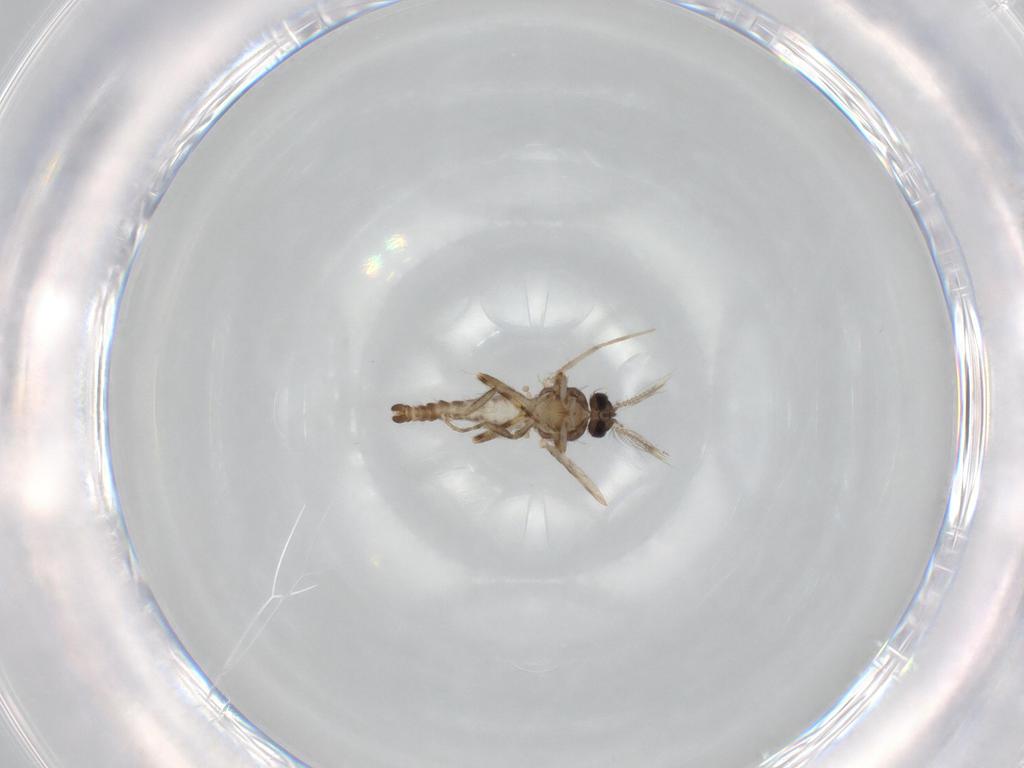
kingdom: Animalia
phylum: Arthropoda
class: Insecta
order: Diptera
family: Ceratopogonidae
